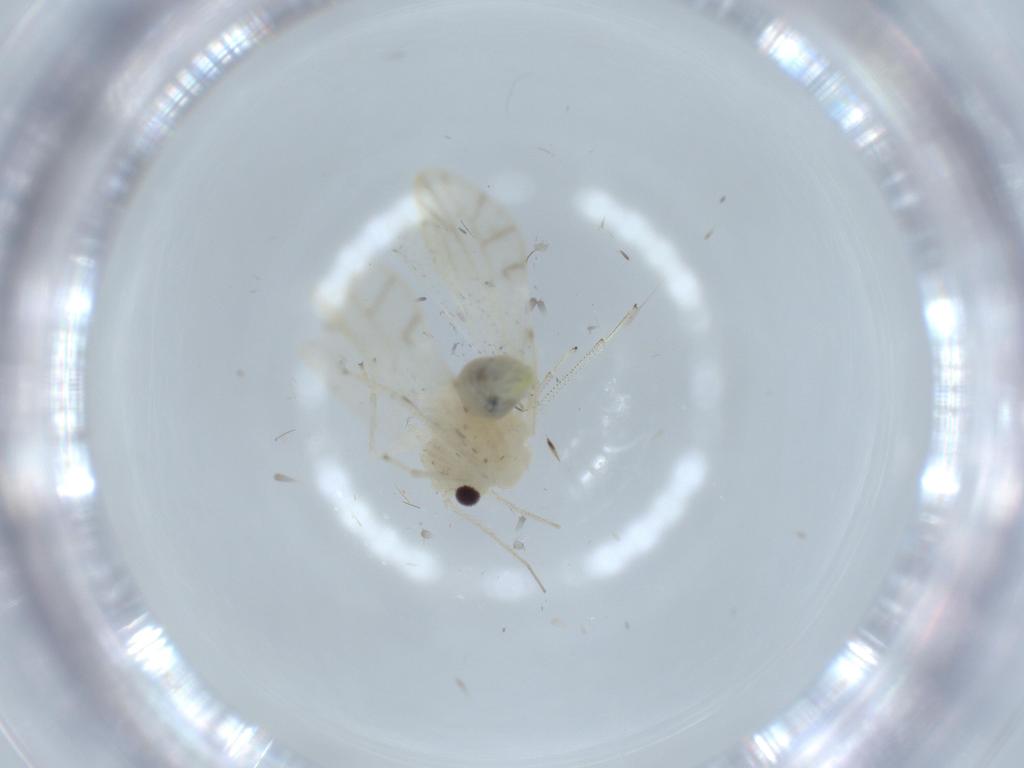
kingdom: Animalia
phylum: Arthropoda
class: Insecta
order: Psocodea
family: Caeciliusidae
